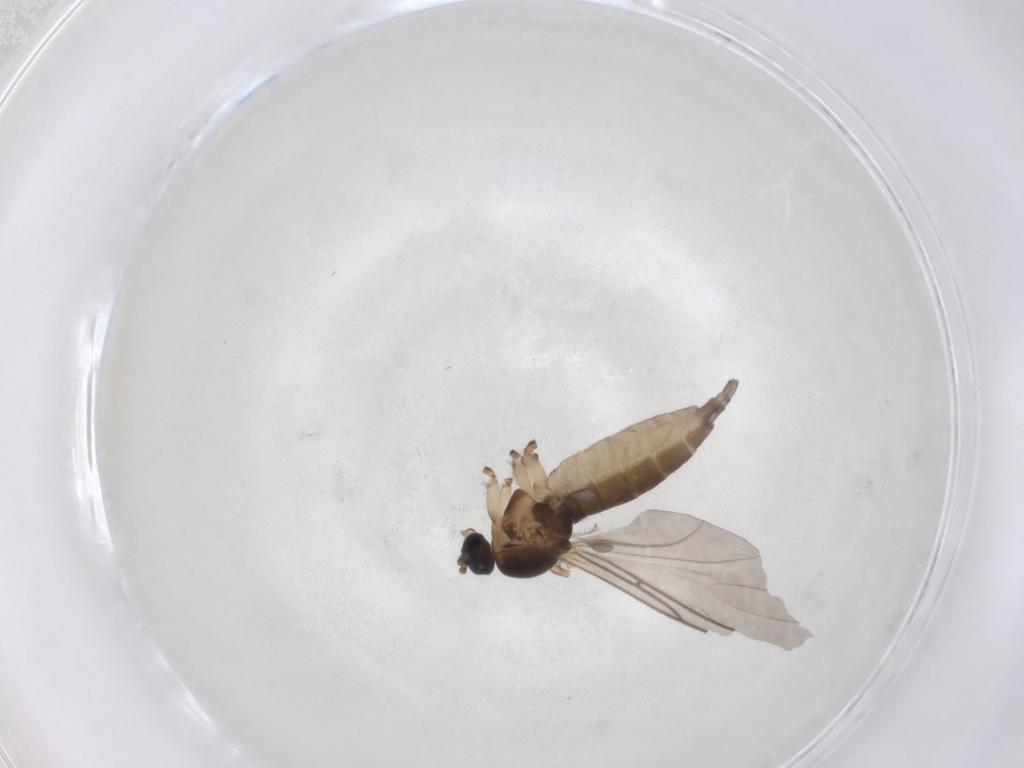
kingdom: Animalia
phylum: Arthropoda
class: Insecta
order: Diptera
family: Sciaridae
